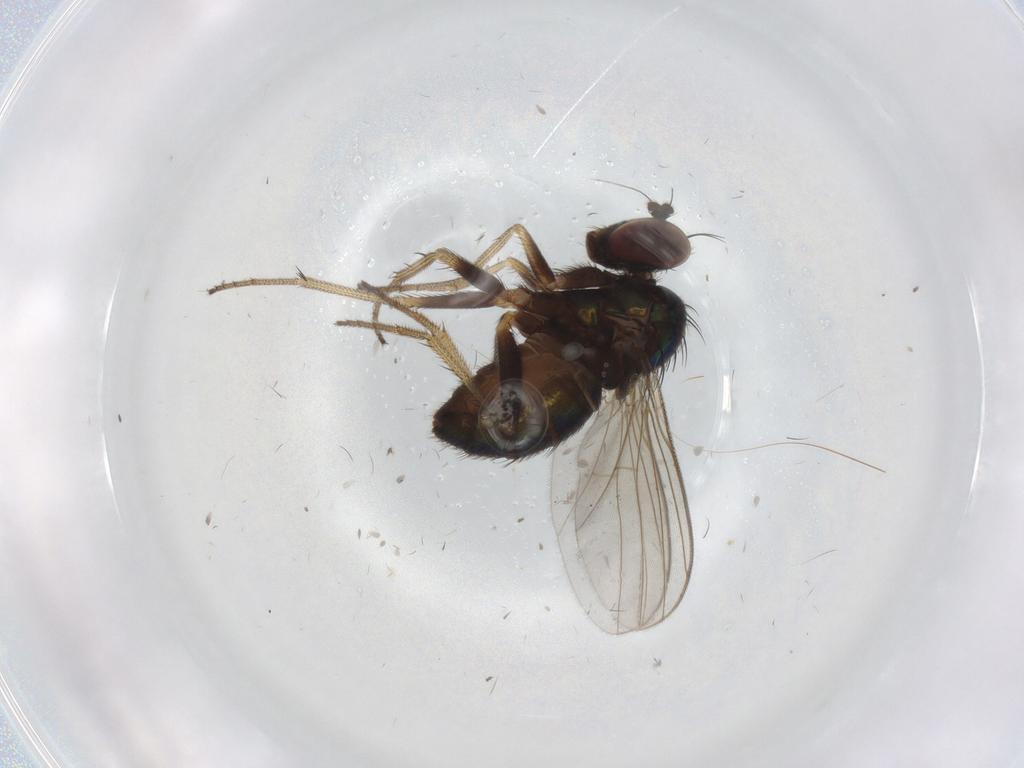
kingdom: Animalia
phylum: Arthropoda
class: Insecta
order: Diptera
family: Dolichopodidae
